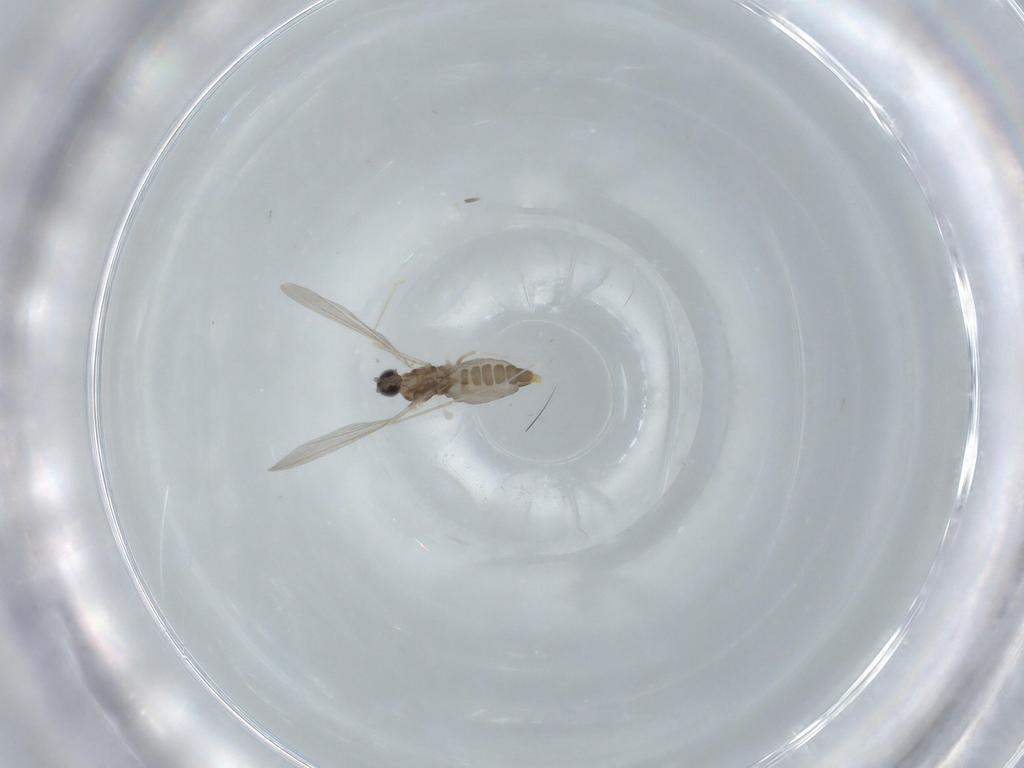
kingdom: Animalia
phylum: Arthropoda
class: Insecta
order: Diptera
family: Cecidomyiidae
